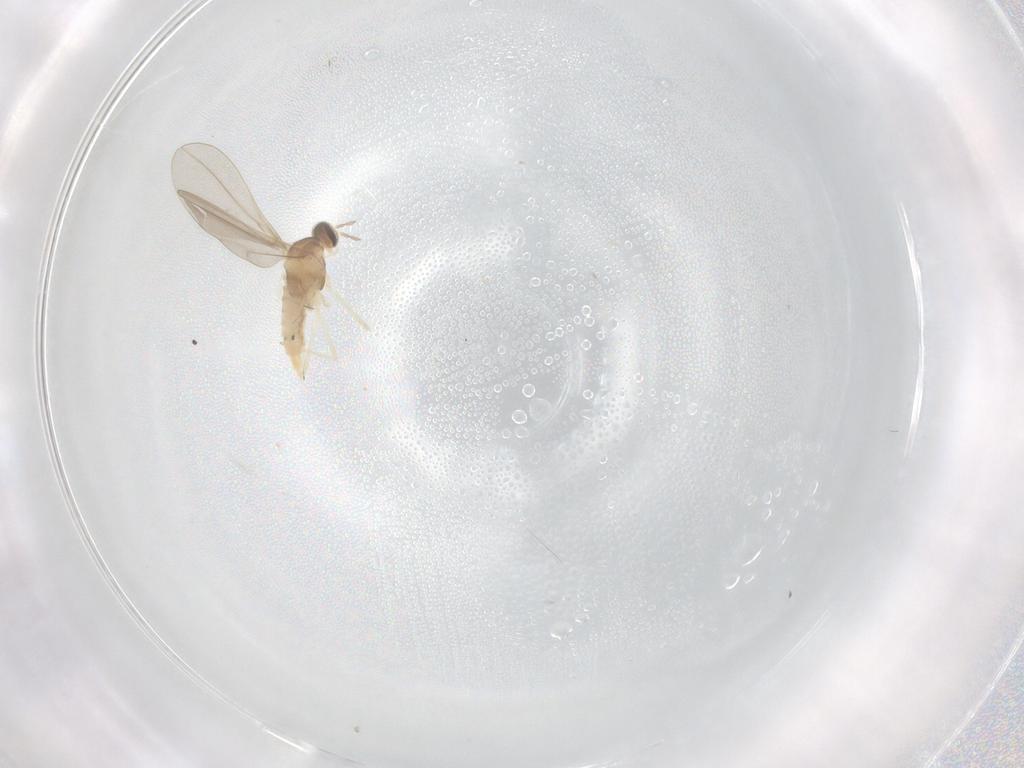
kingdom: Animalia
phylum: Arthropoda
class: Insecta
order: Diptera
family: Cecidomyiidae
